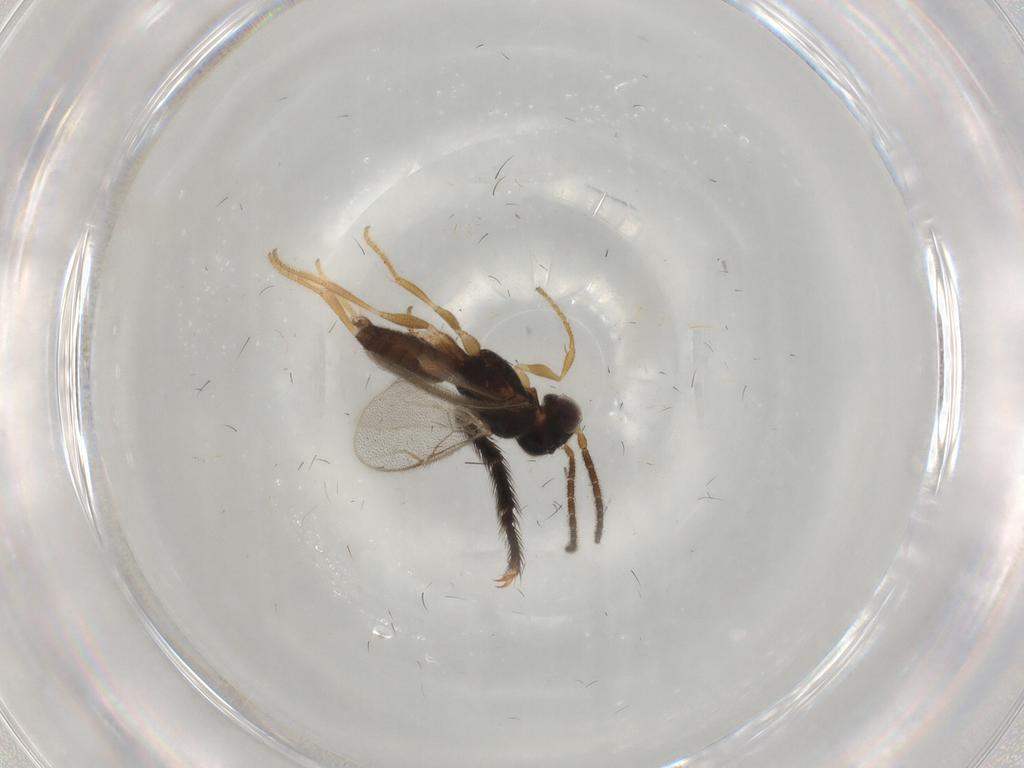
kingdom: Animalia
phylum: Arthropoda
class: Insecta
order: Hymenoptera
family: Dryinidae
